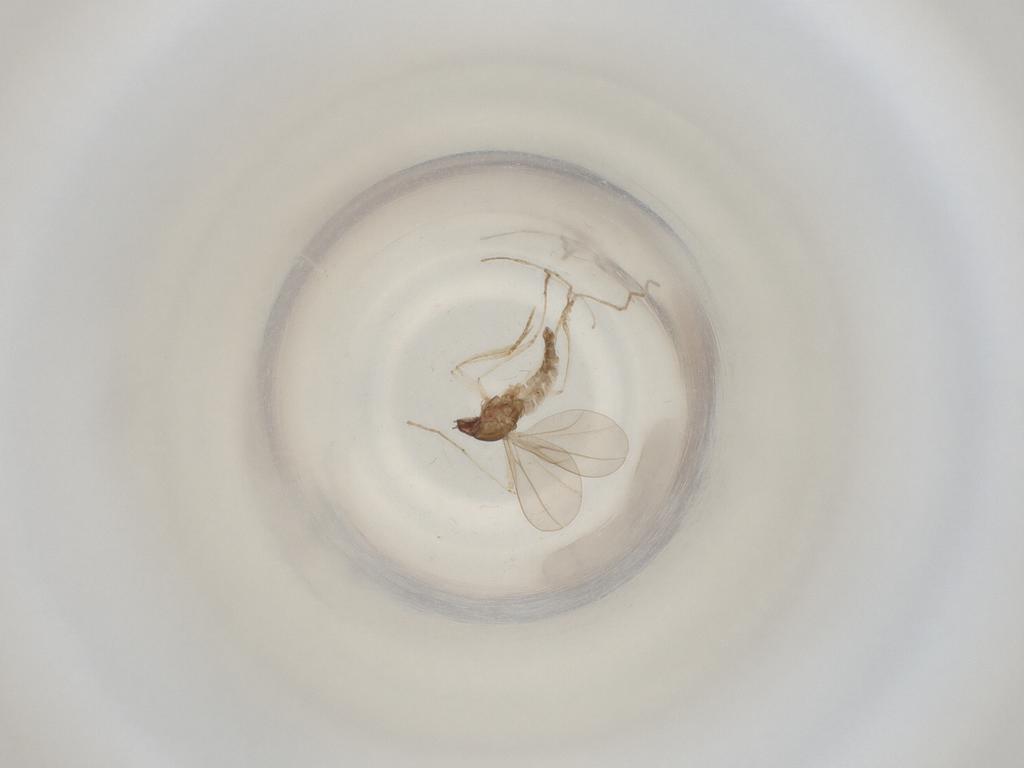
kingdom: Animalia
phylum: Arthropoda
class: Insecta
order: Diptera
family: Cecidomyiidae
